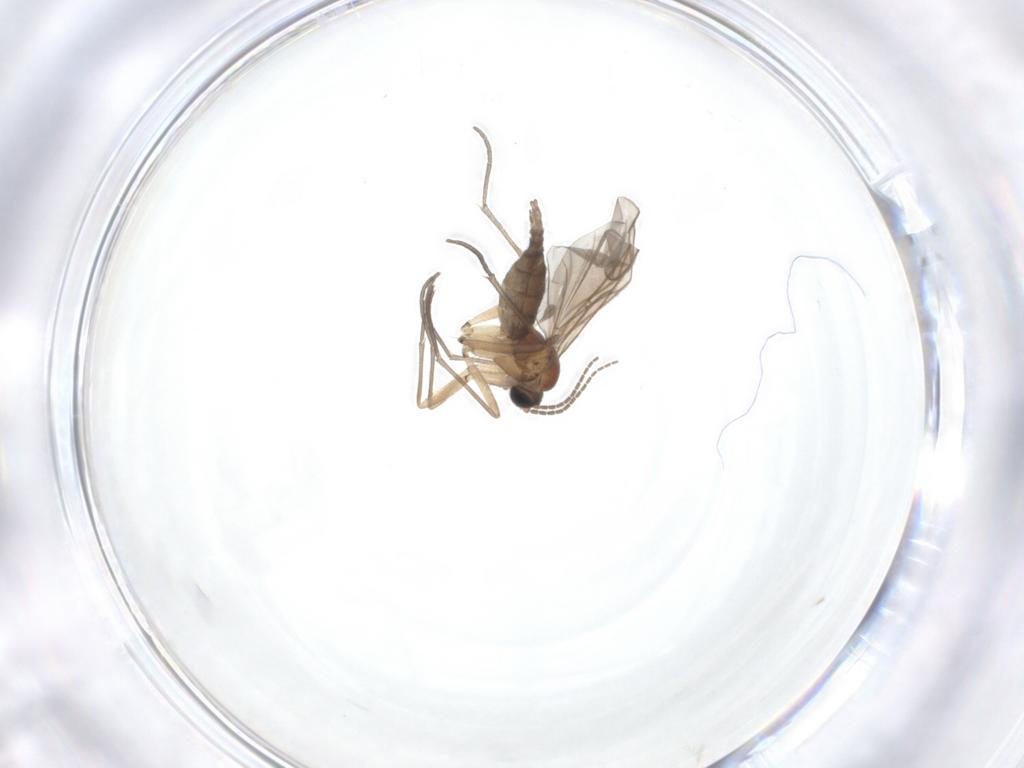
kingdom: Animalia
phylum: Arthropoda
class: Insecta
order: Diptera
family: Sciaridae
